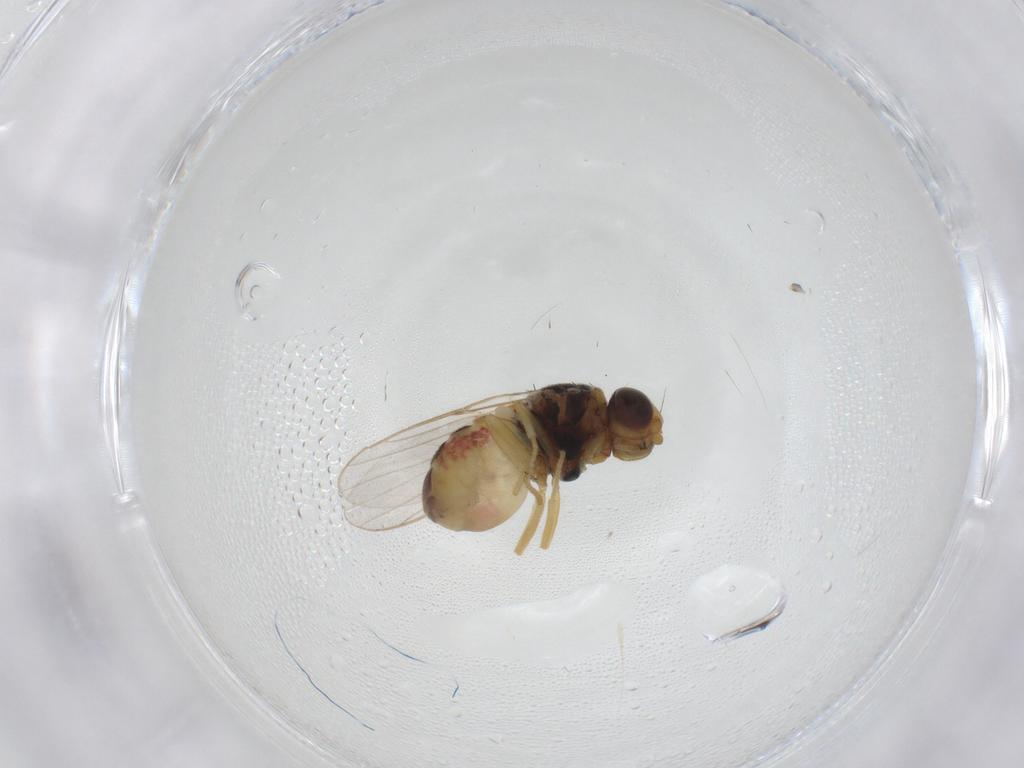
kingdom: Animalia
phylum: Arthropoda
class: Insecta
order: Diptera
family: Chloropidae
